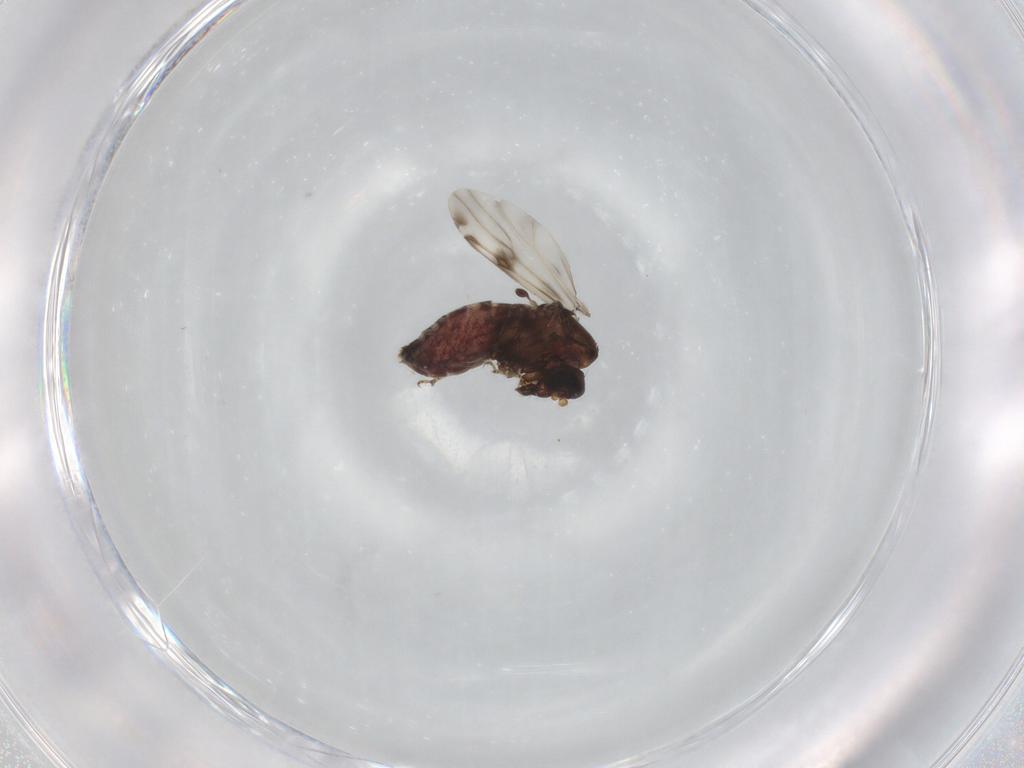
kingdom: Animalia
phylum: Arthropoda
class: Insecta
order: Diptera
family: Ceratopogonidae
